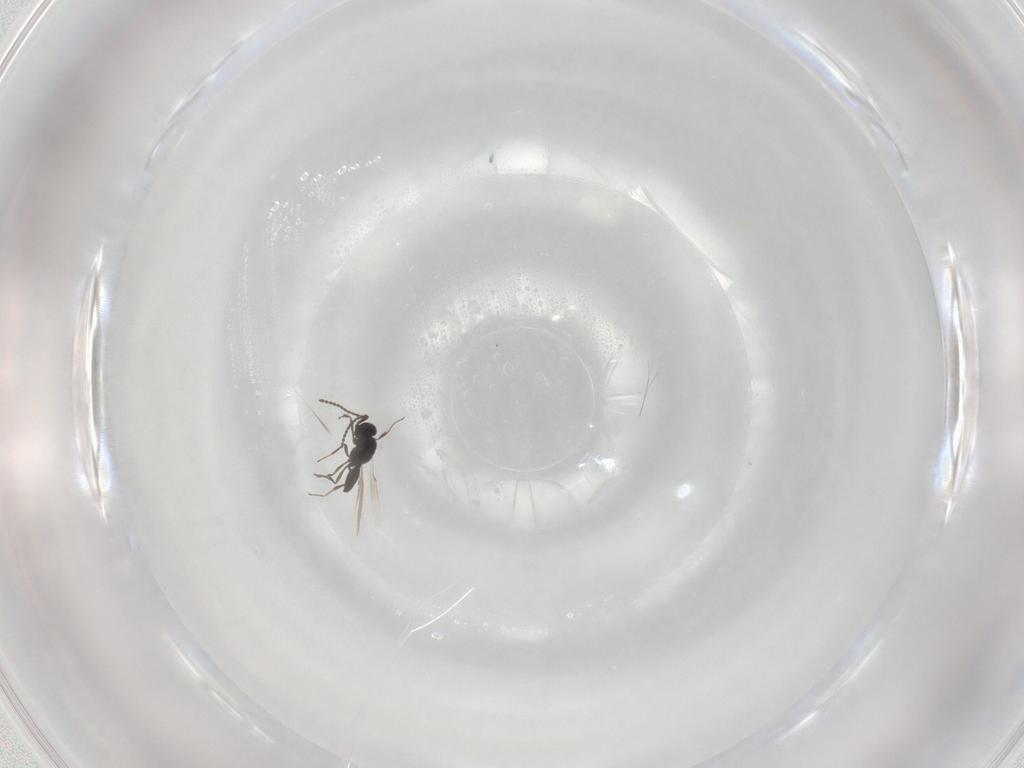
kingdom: Animalia
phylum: Arthropoda
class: Insecta
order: Hymenoptera
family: Scelionidae
